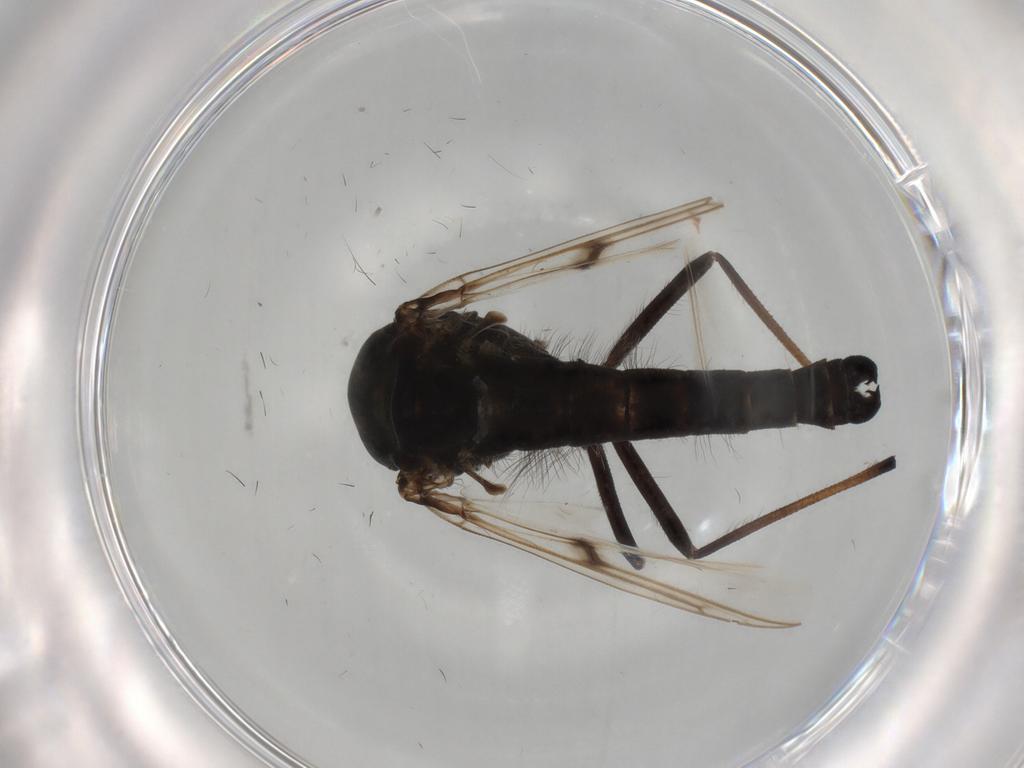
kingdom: Animalia
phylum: Arthropoda
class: Insecta
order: Diptera
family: Chironomidae
